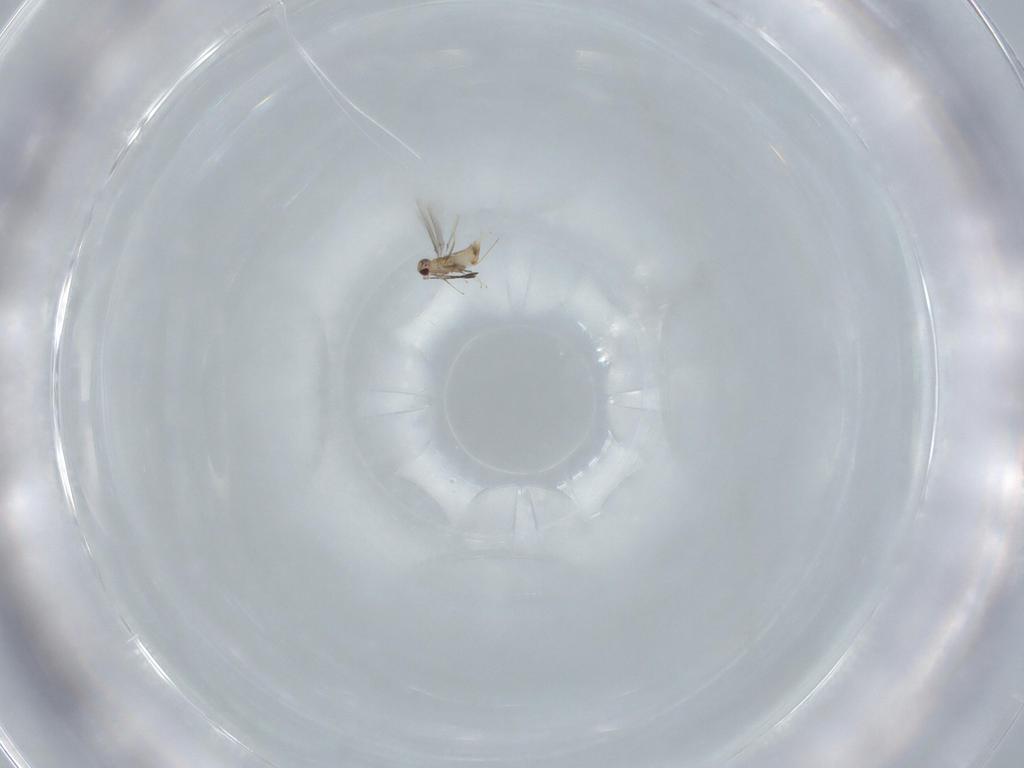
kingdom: Animalia
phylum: Arthropoda
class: Insecta
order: Hymenoptera
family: Mymaridae
